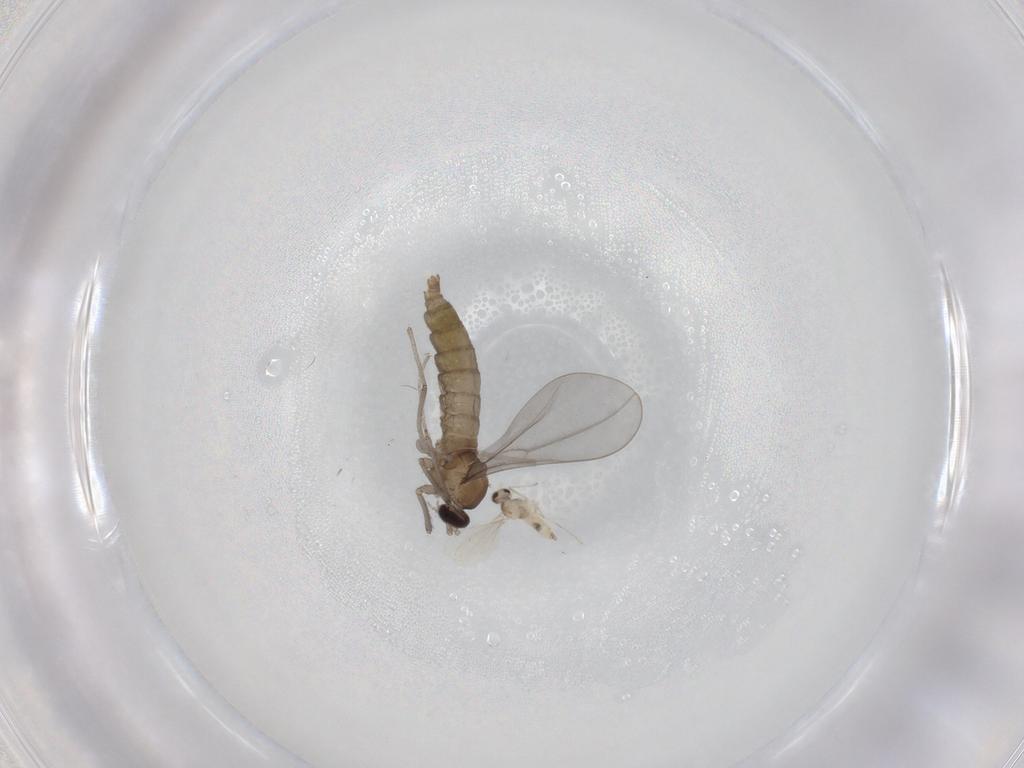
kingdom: Animalia
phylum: Arthropoda
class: Insecta
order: Diptera
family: Cecidomyiidae
